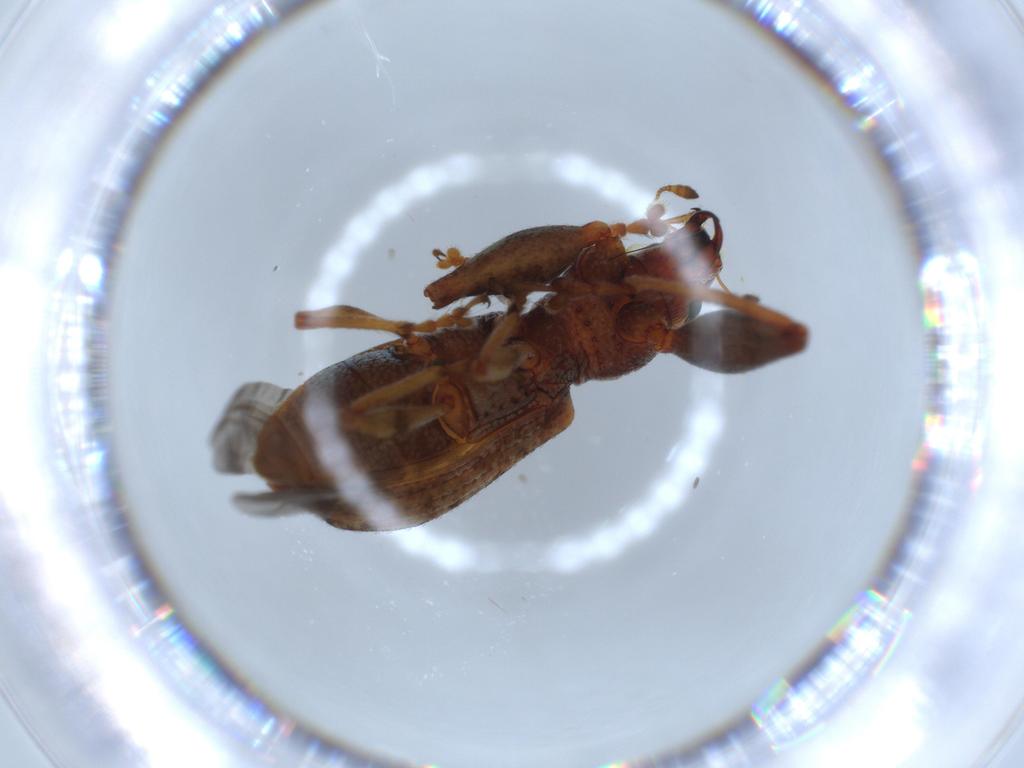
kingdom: Animalia
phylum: Arthropoda
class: Insecta
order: Coleoptera
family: Curculionidae
